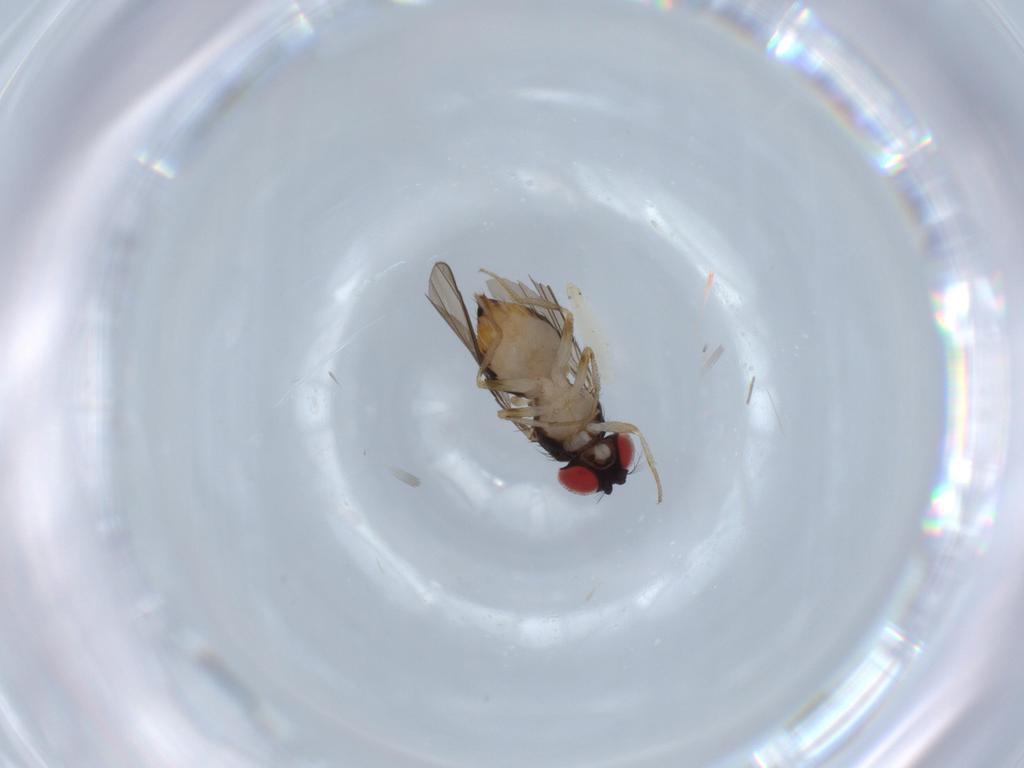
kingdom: Animalia
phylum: Arthropoda
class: Insecta
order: Diptera
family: Drosophilidae
